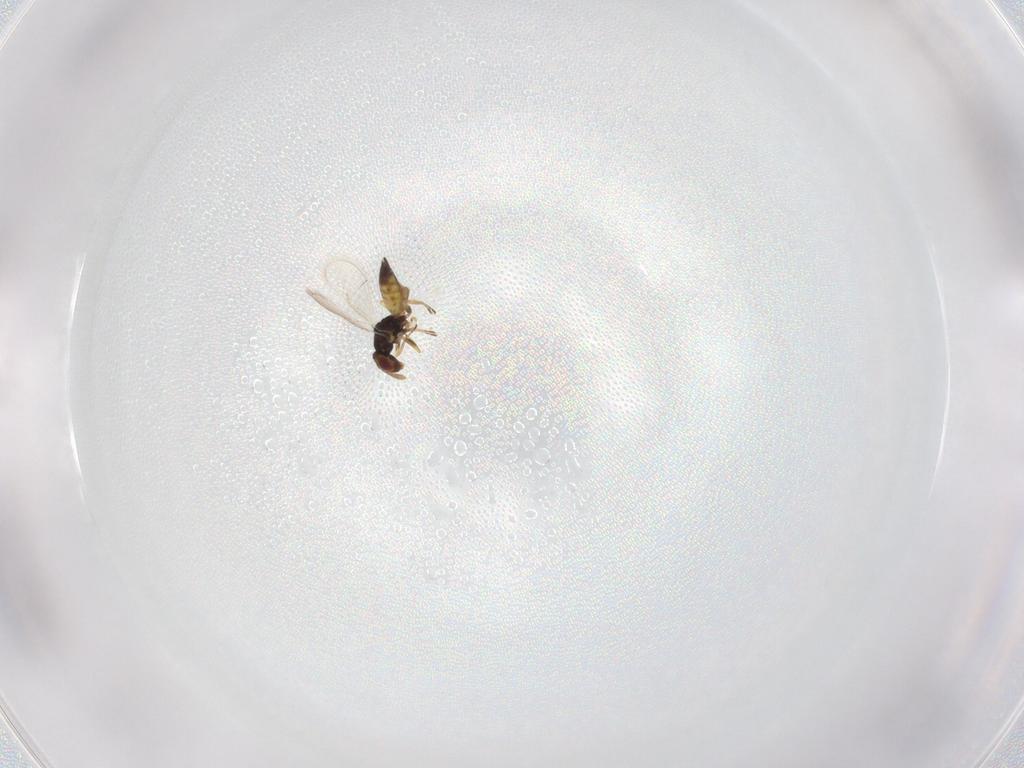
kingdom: Animalia
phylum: Arthropoda
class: Insecta
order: Hymenoptera
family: Eulophidae
